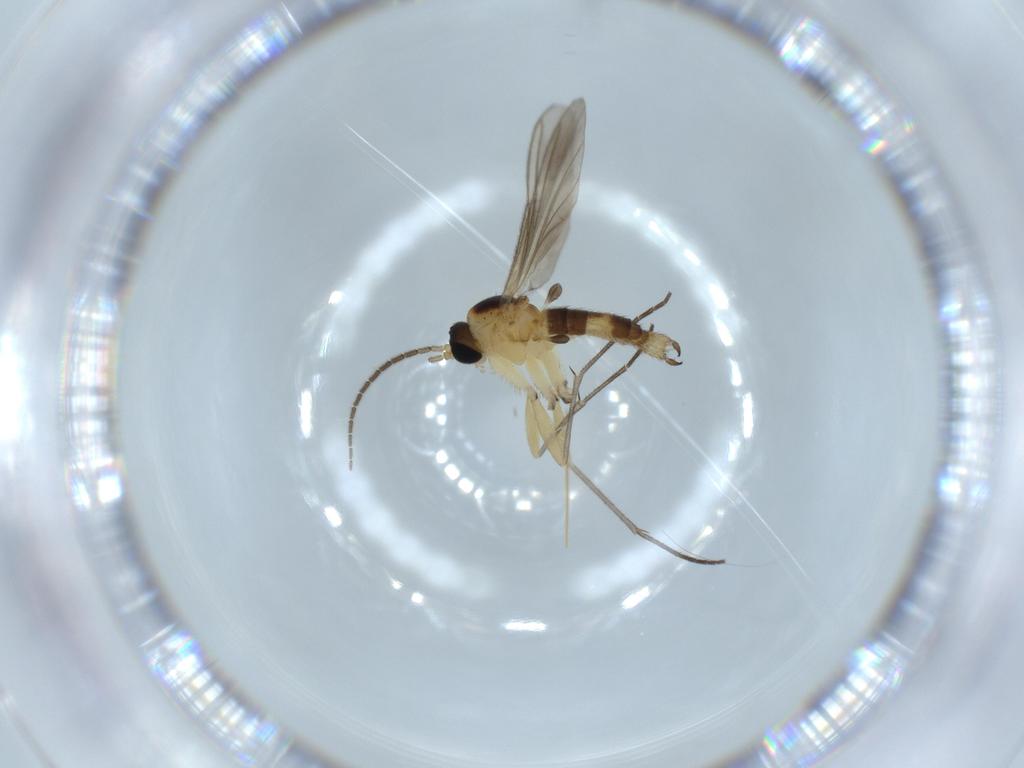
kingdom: Animalia
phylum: Arthropoda
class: Insecta
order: Diptera
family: Sciaridae
